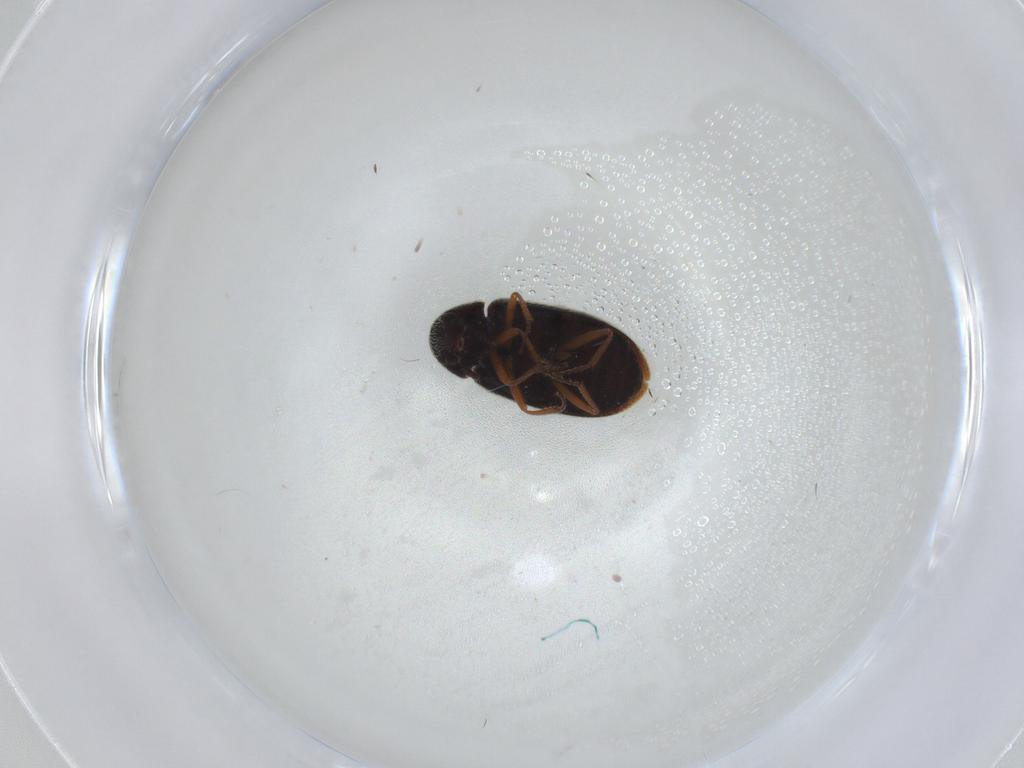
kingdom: Animalia
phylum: Arthropoda
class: Insecta
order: Coleoptera
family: Rhadalidae
